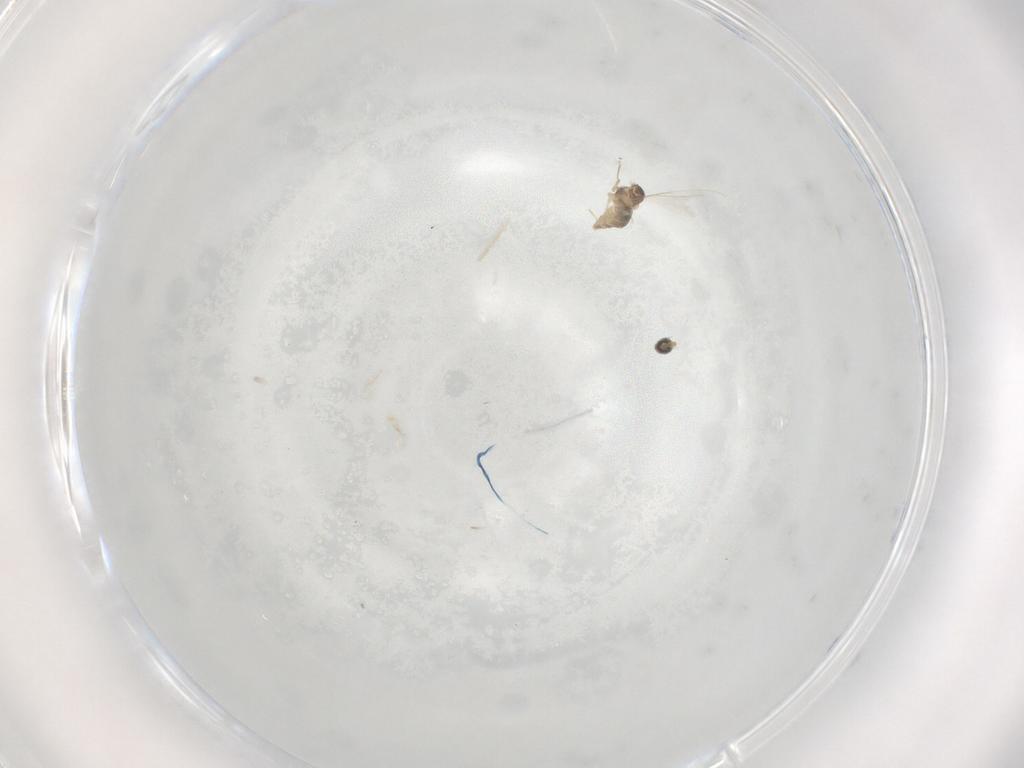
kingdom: Animalia
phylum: Arthropoda
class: Insecta
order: Diptera
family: Cecidomyiidae
